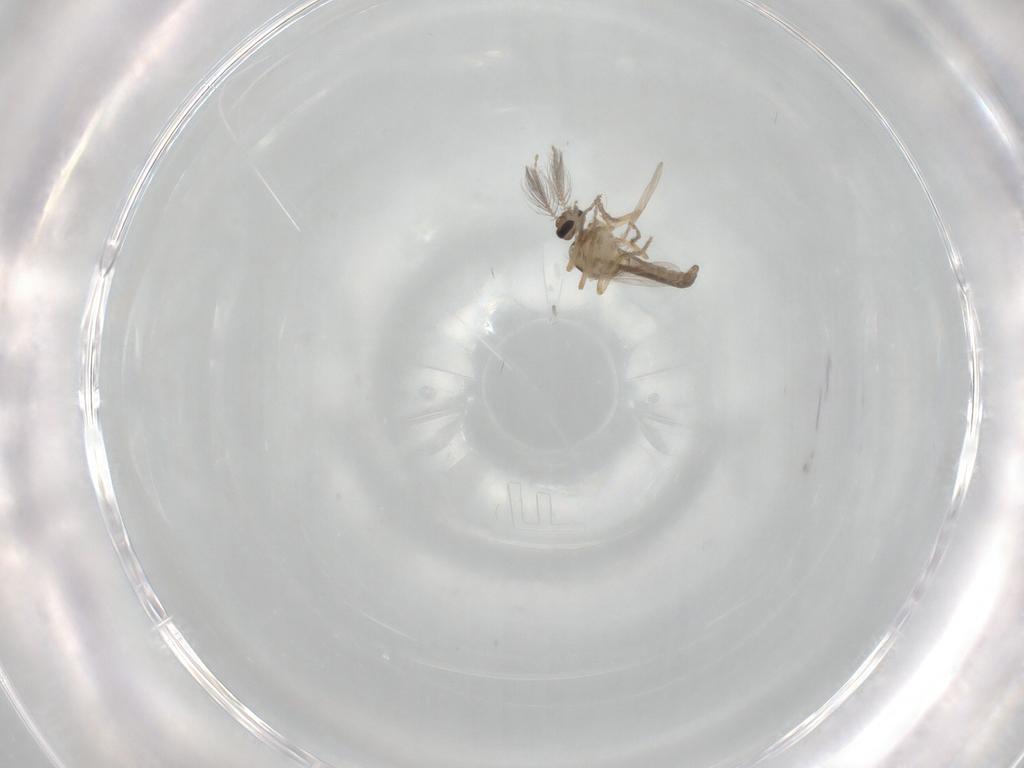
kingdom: Animalia
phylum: Arthropoda
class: Insecta
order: Diptera
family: Ceratopogonidae
